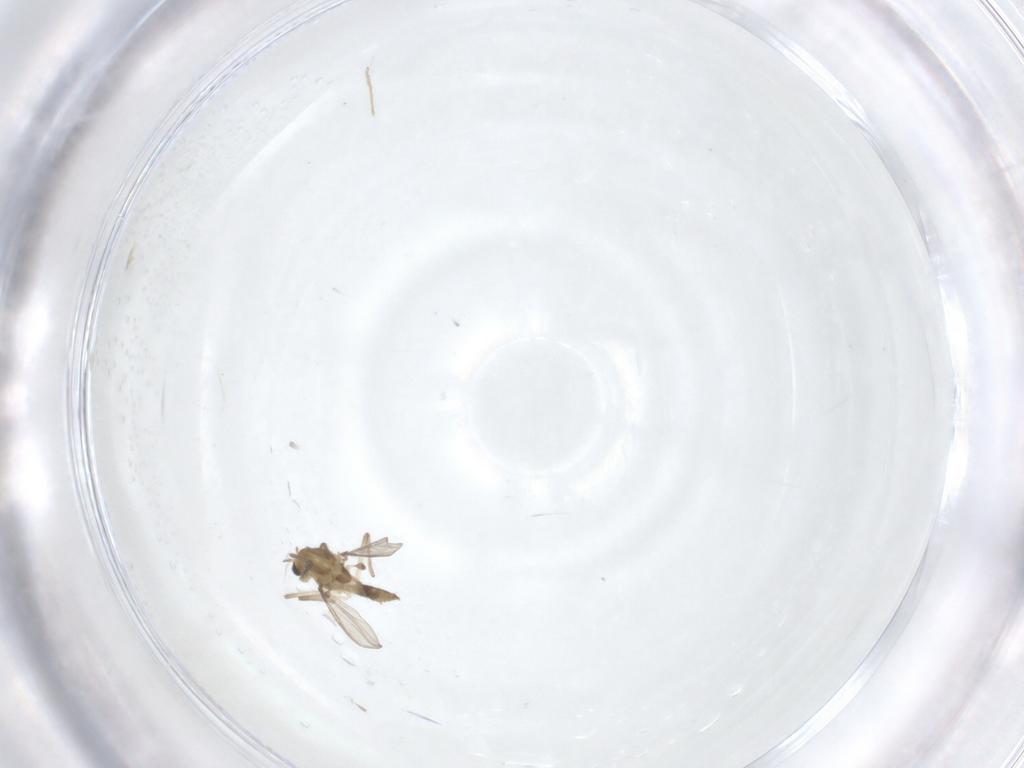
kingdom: Animalia
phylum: Arthropoda
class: Insecta
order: Diptera
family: Chironomidae
